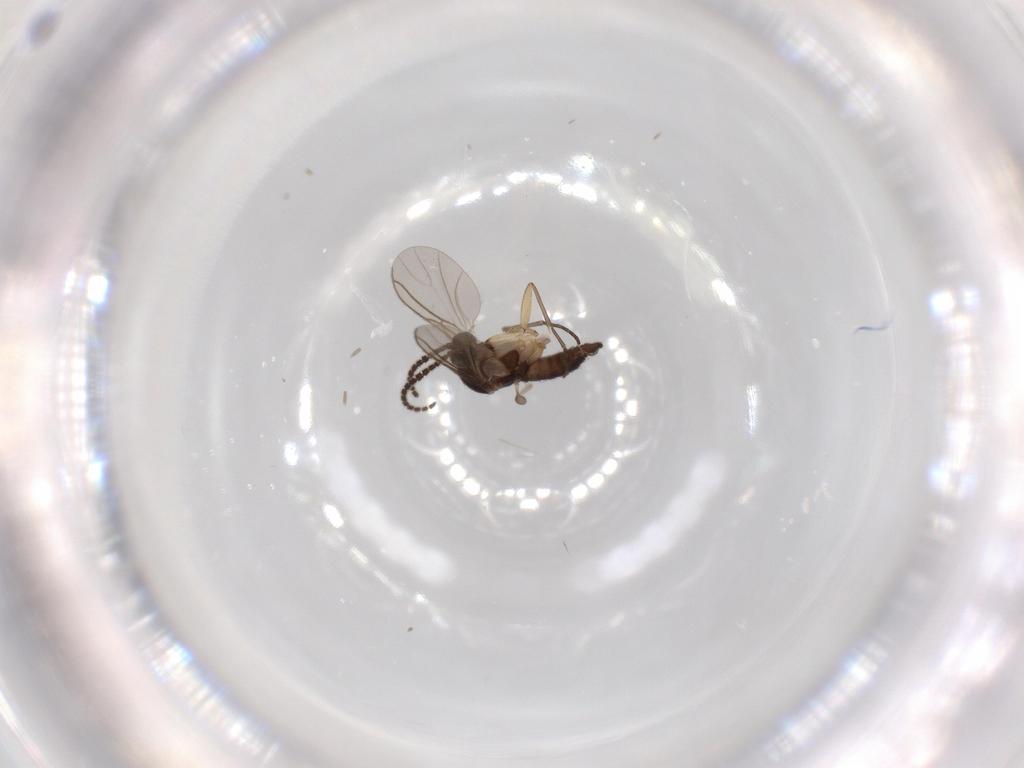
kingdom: Animalia
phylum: Arthropoda
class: Insecta
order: Diptera
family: Sciaridae
